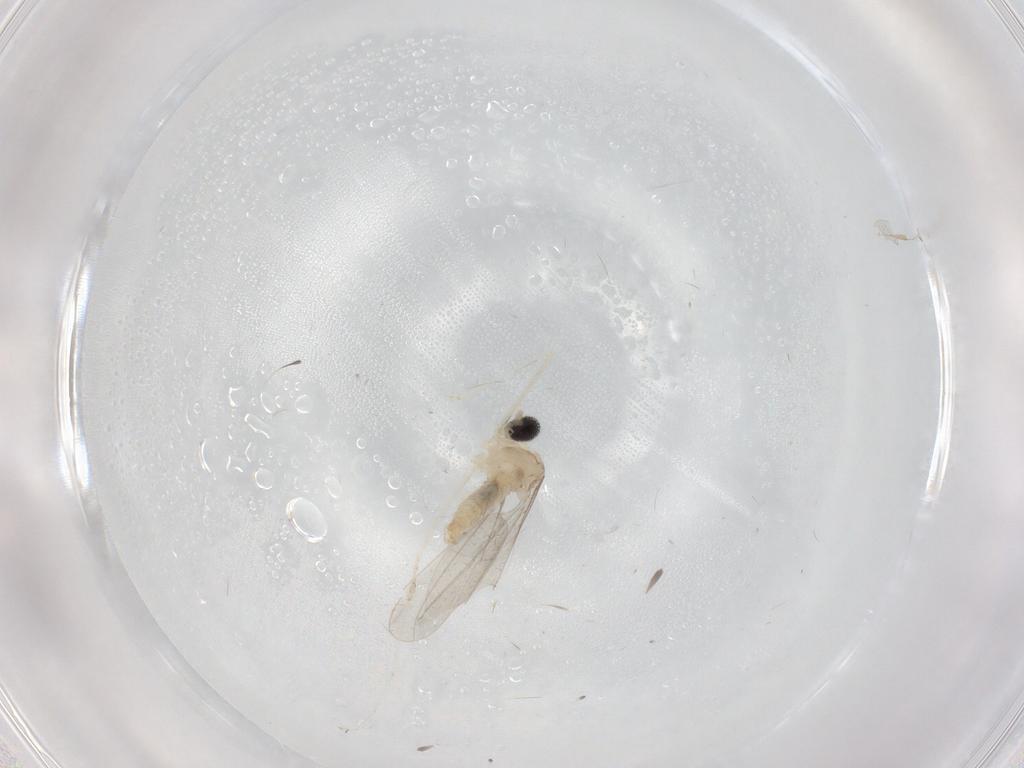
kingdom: Animalia
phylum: Arthropoda
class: Insecta
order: Diptera
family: Cecidomyiidae
